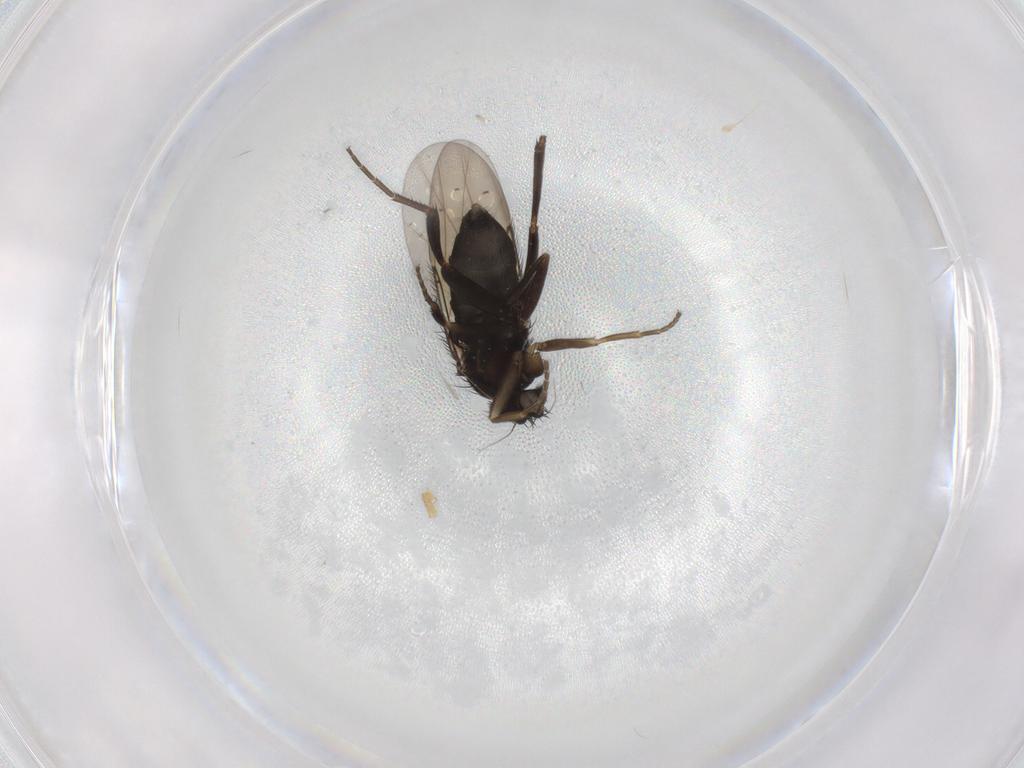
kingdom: Animalia
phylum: Arthropoda
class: Insecta
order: Diptera
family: Phoridae
